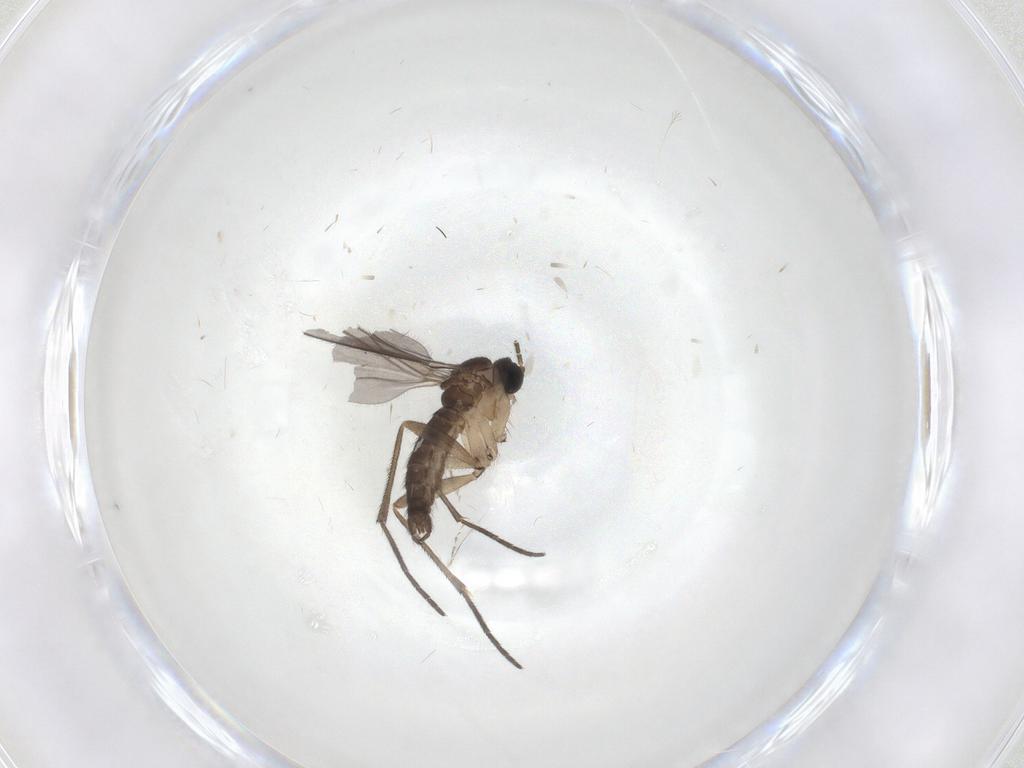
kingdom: Animalia
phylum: Arthropoda
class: Insecta
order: Diptera
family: Sciaridae
